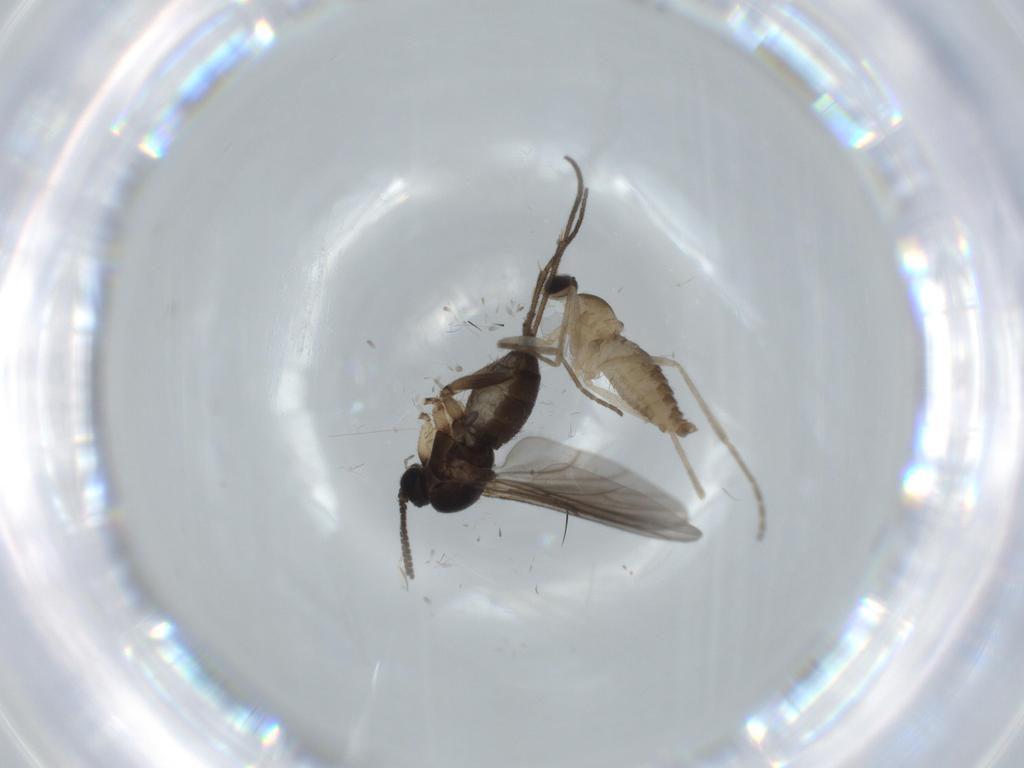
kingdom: Animalia
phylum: Arthropoda
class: Insecta
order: Diptera
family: Sciaridae
